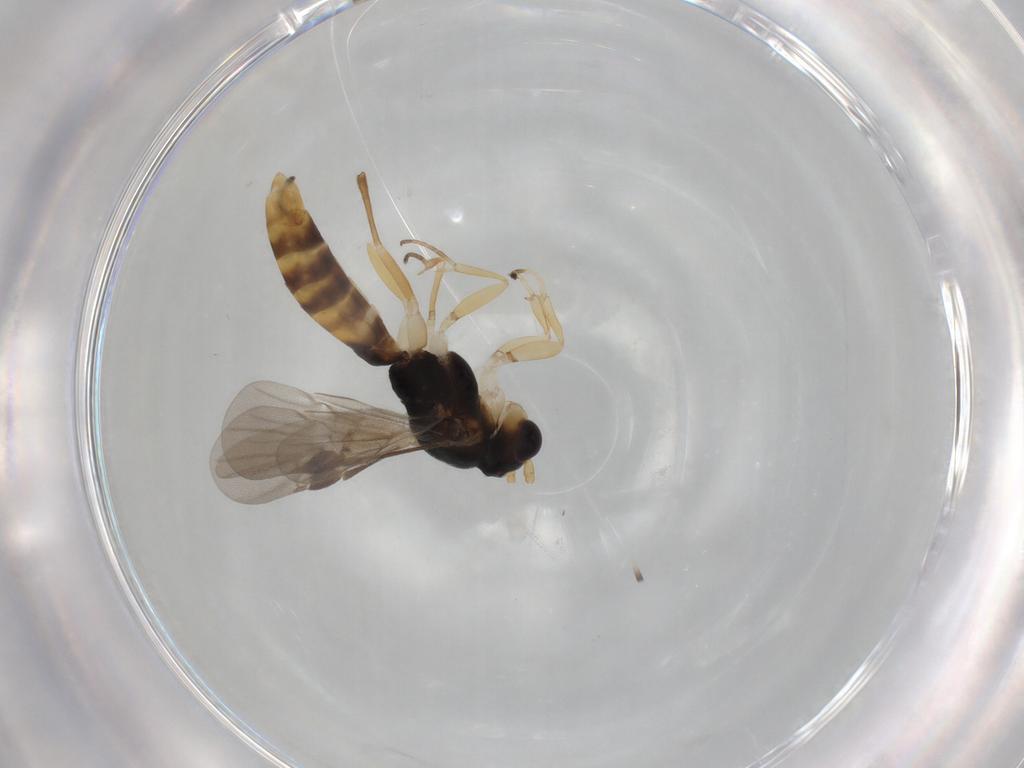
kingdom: Animalia
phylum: Arthropoda
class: Insecta
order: Hymenoptera
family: Braconidae
